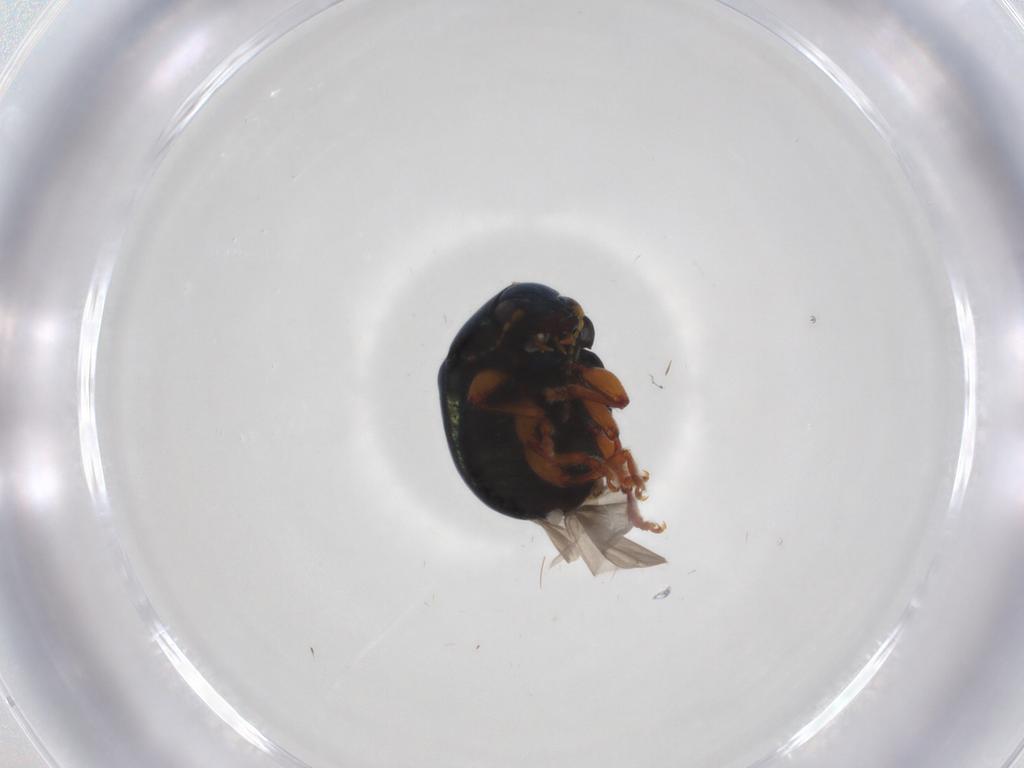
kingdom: Animalia
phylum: Arthropoda
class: Insecta
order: Coleoptera
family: Chrysomelidae
